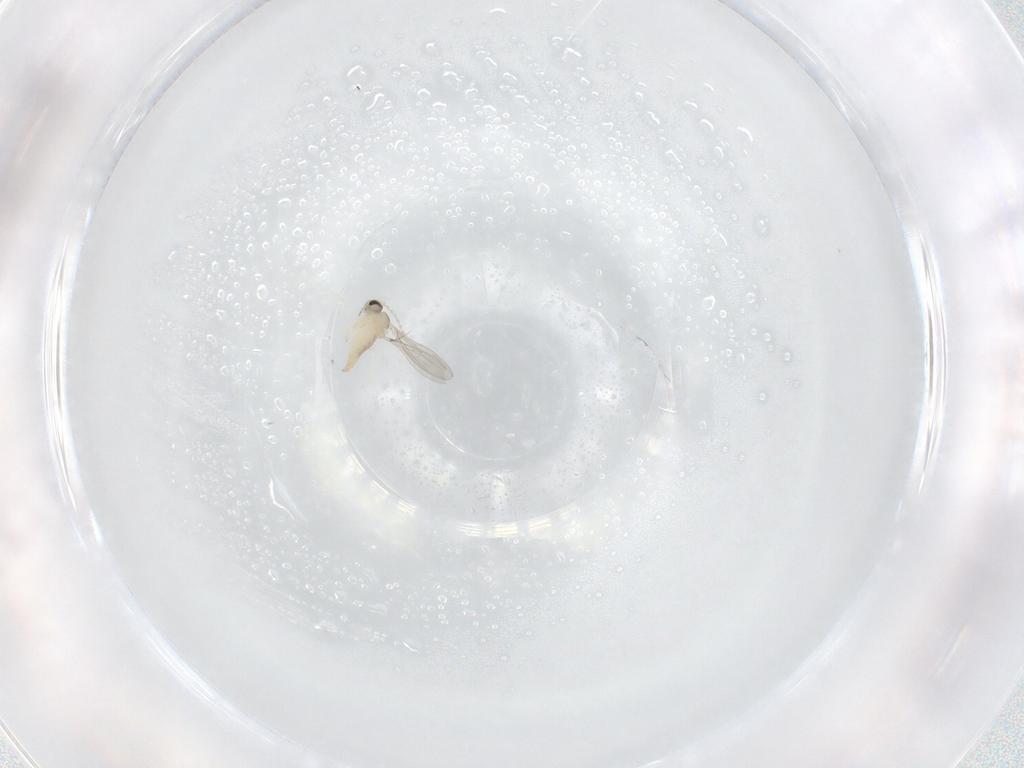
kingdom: Animalia
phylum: Arthropoda
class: Insecta
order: Diptera
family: Cecidomyiidae
